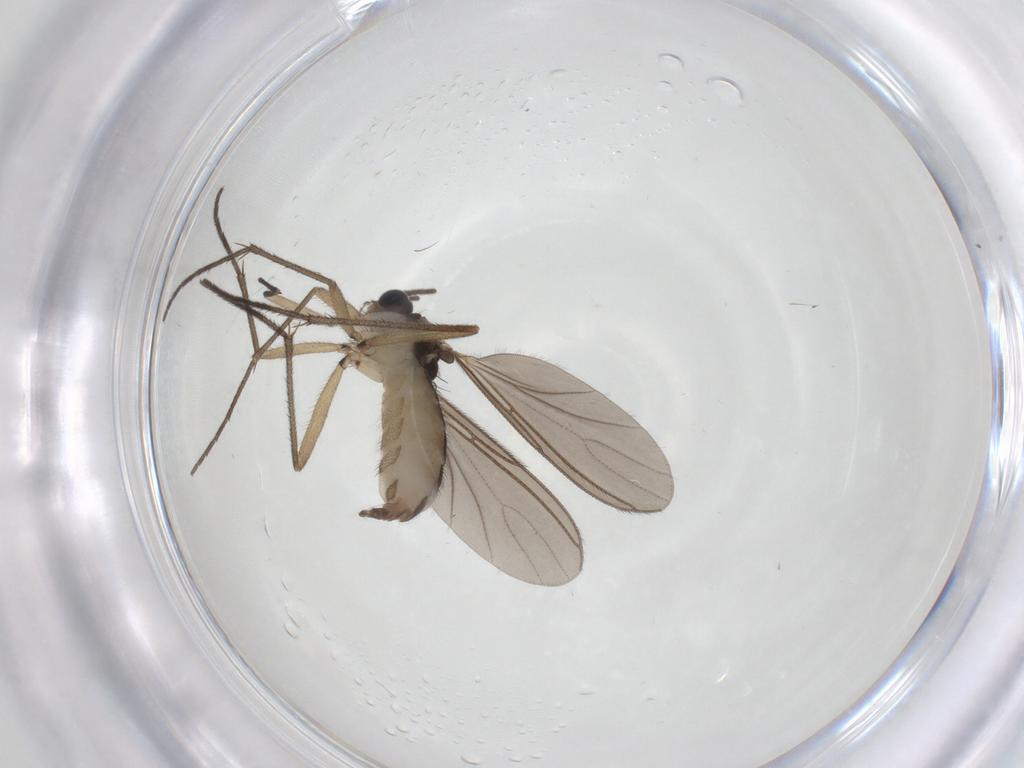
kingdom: Animalia
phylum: Arthropoda
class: Insecta
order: Diptera
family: Sciaridae
